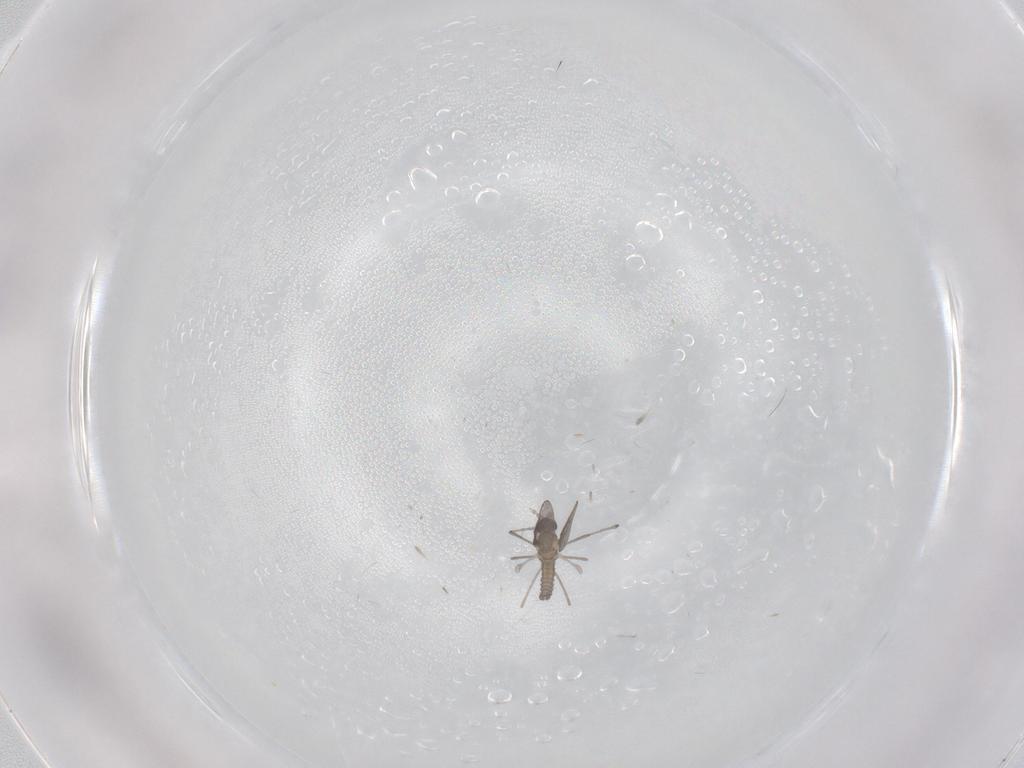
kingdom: Animalia
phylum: Arthropoda
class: Insecta
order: Diptera
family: Cecidomyiidae
